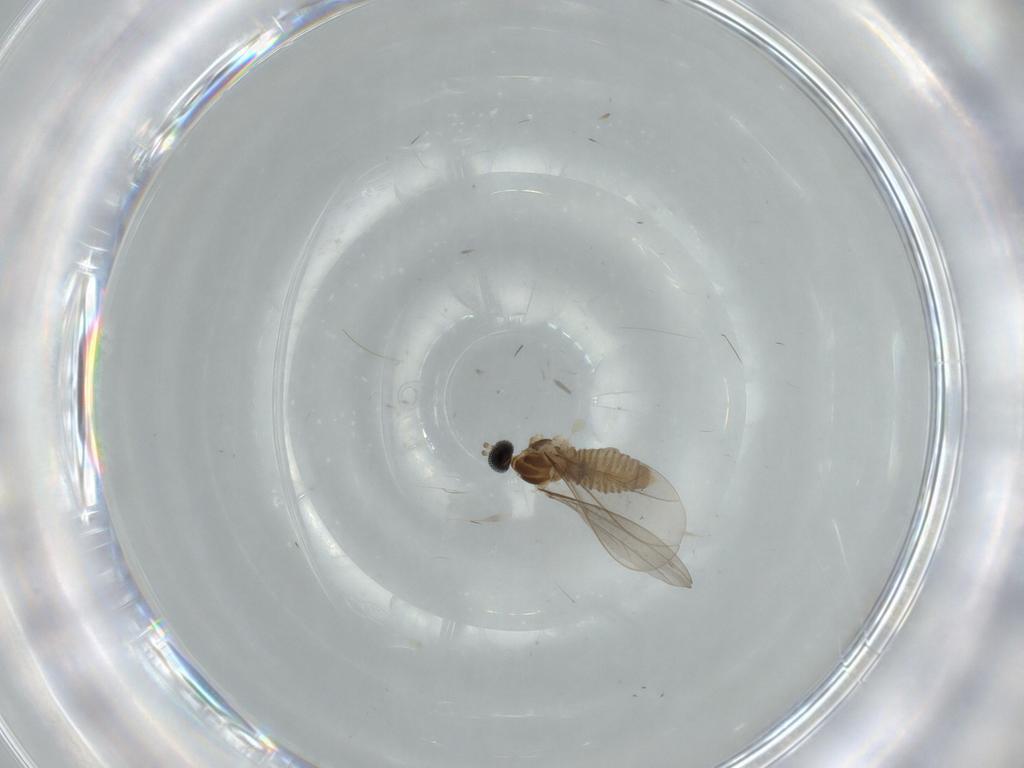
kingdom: Animalia
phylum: Arthropoda
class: Insecta
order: Diptera
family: Cecidomyiidae
